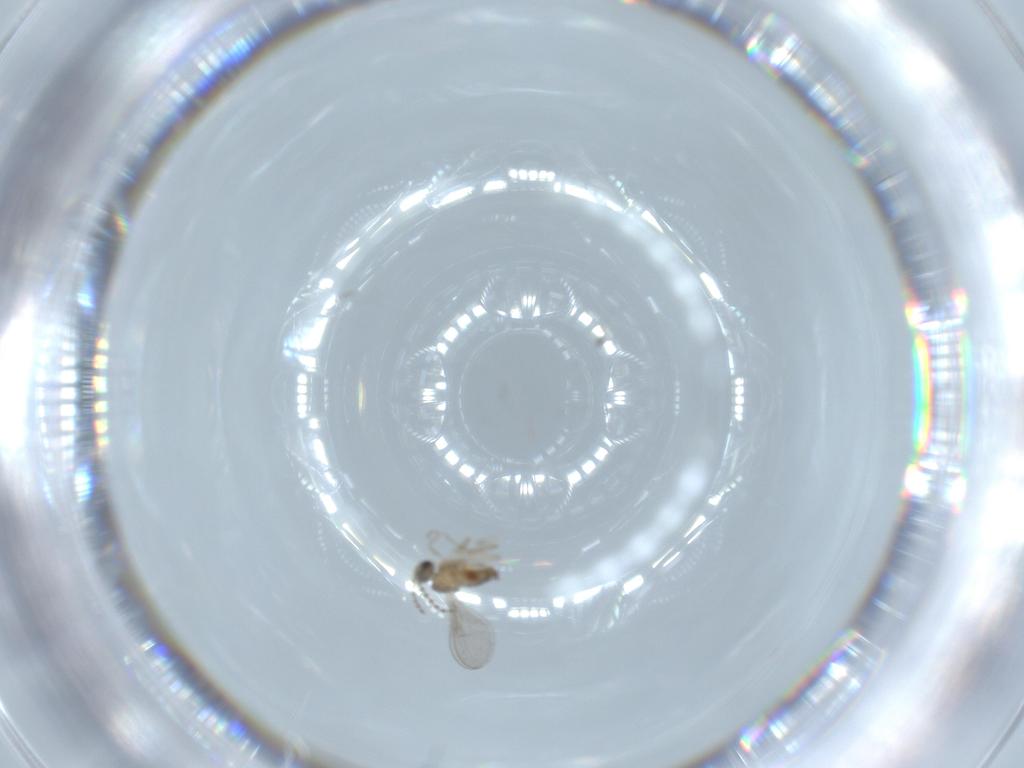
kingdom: Animalia
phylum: Arthropoda
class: Insecta
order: Diptera
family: Cecidomyiidae
